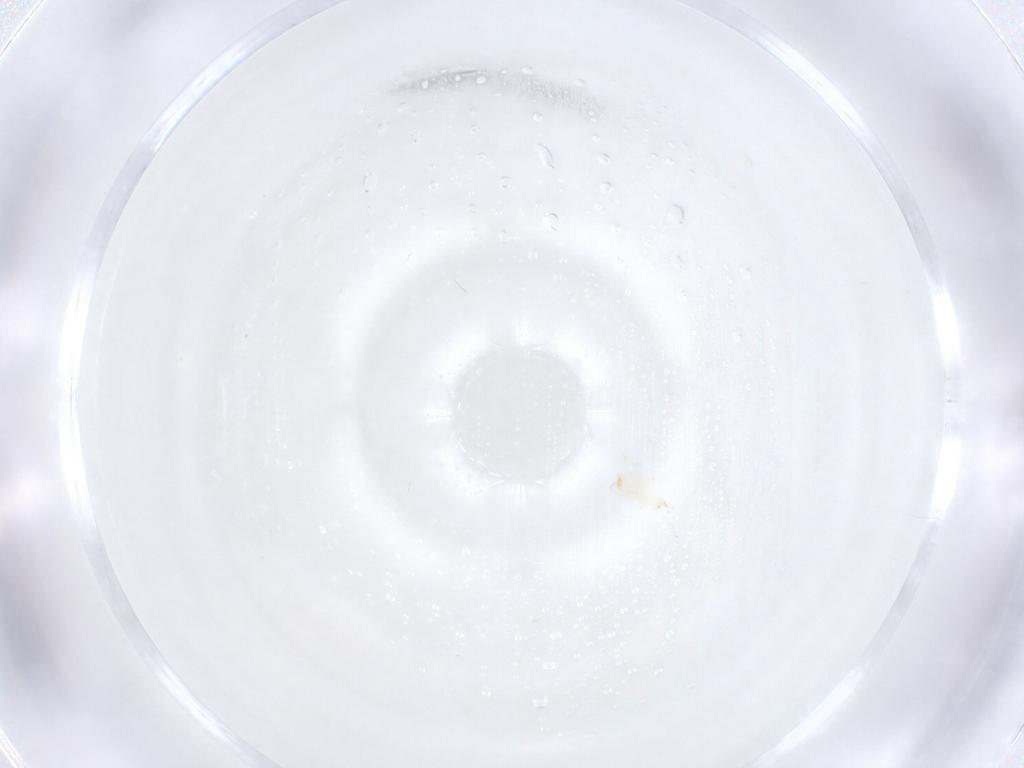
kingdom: Animalia
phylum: Arthropoda
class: Arachnida
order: Mesostigmata
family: Phytoseiidae
